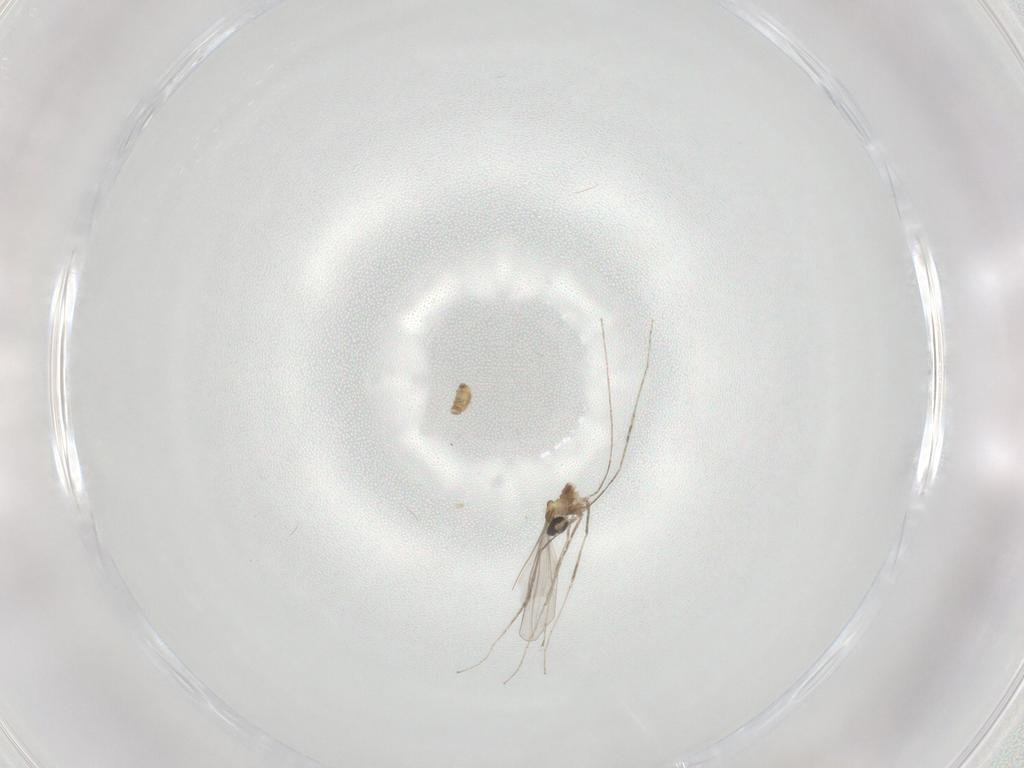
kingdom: Animalia
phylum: Arthropoda
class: Insecta
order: Diptera
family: Cecidomyiidae
